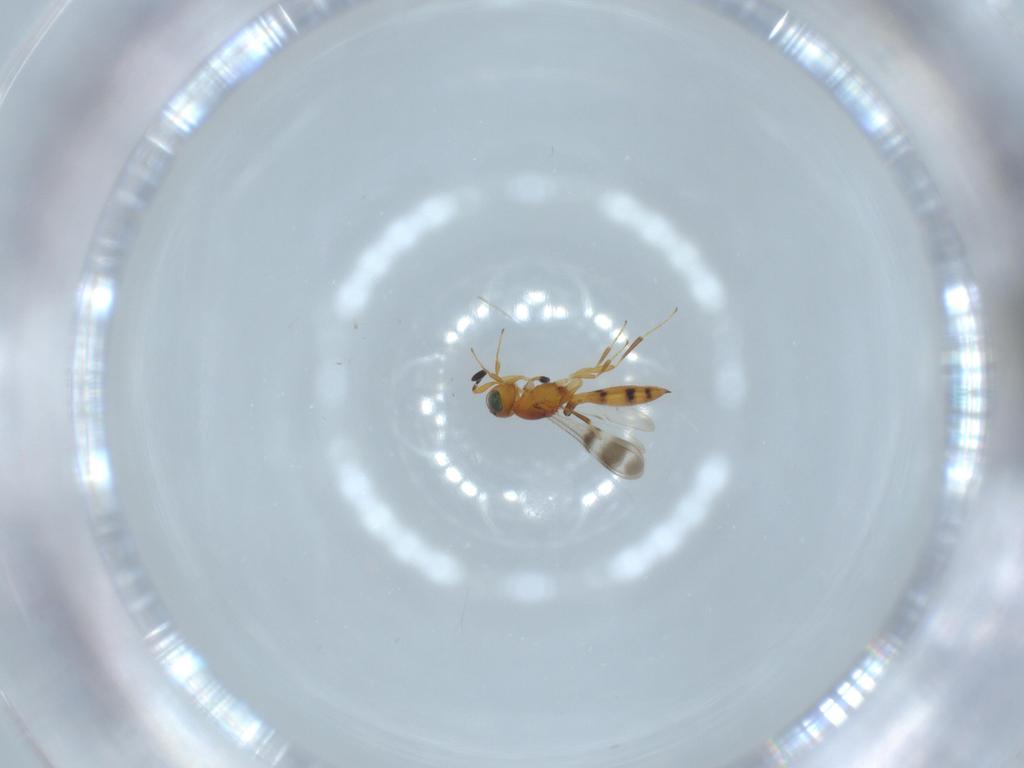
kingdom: Animalia
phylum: Arthropoda
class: Insecta
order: Hymenoptera
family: Scelionidae
